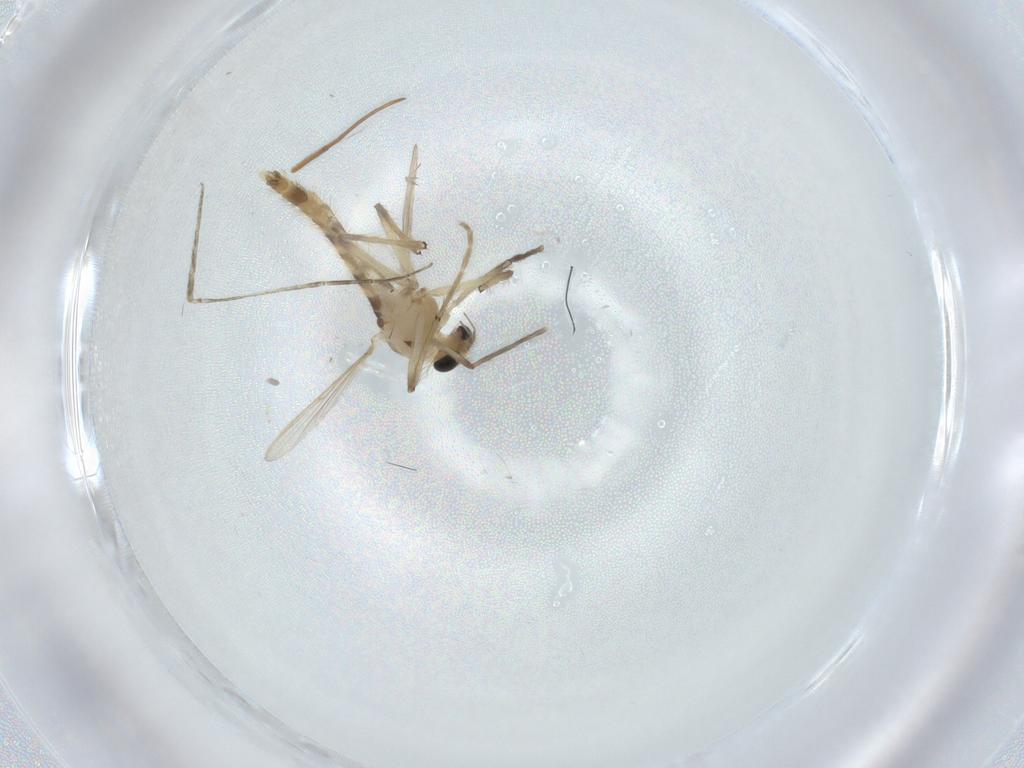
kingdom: Animalia
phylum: Arthropoda
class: Insecta
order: Diptera
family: Chironomidae
